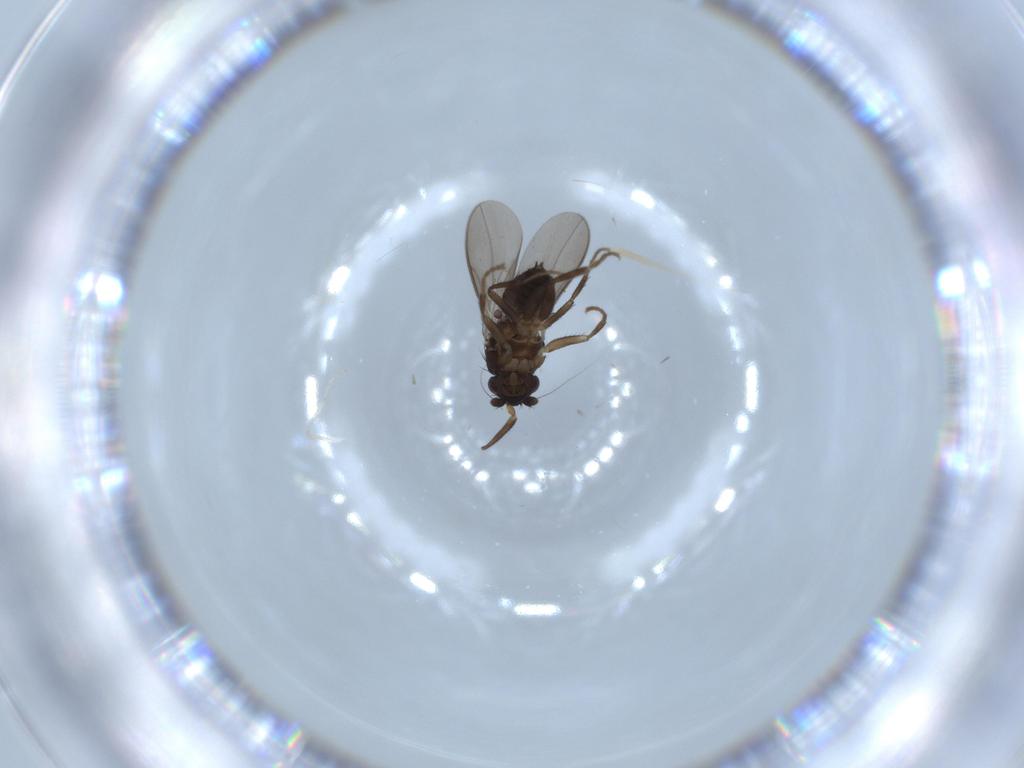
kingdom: Animalia
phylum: Arthropoda
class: Insecta
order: Diptera
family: Sphaeroceridae
